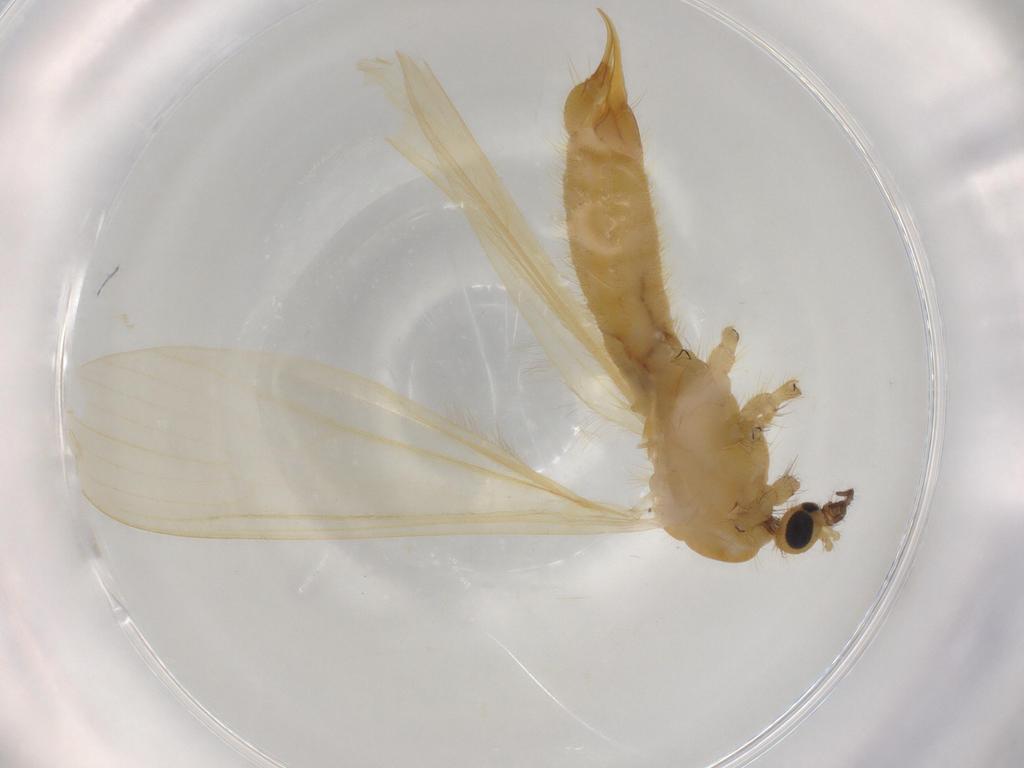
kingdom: Animalia
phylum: Arthropoda
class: Insecta
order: Diptera
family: Limoniidae
